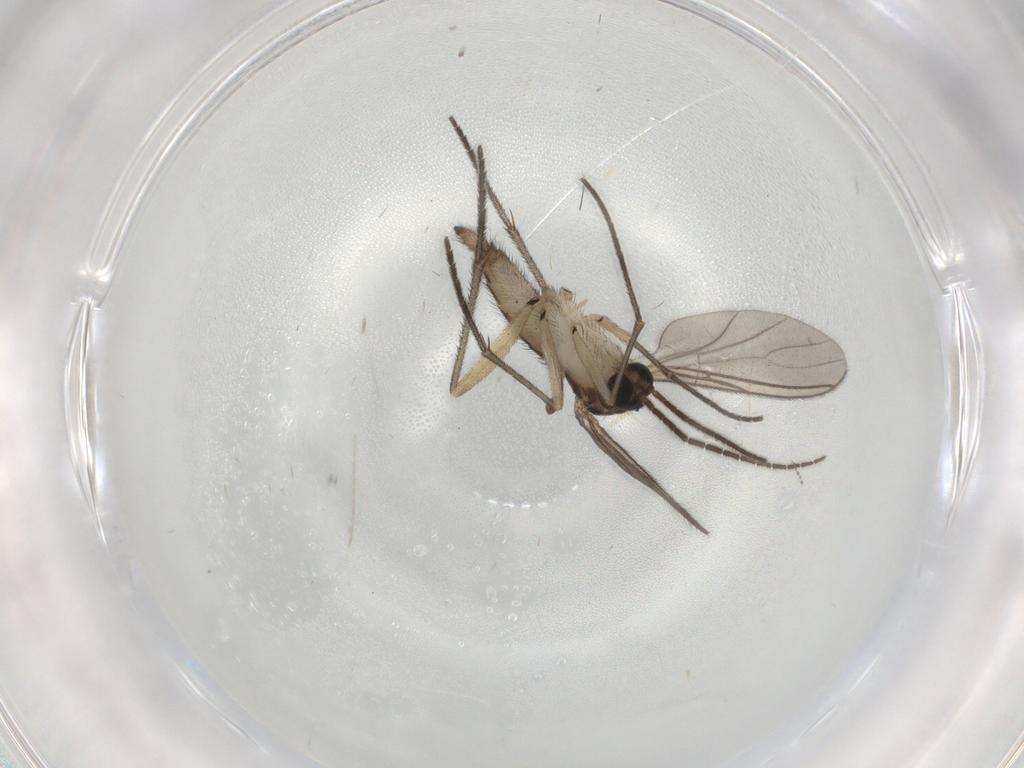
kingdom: Animalia
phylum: Arthropoda
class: Insecta
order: Diptera
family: Sciaridae
